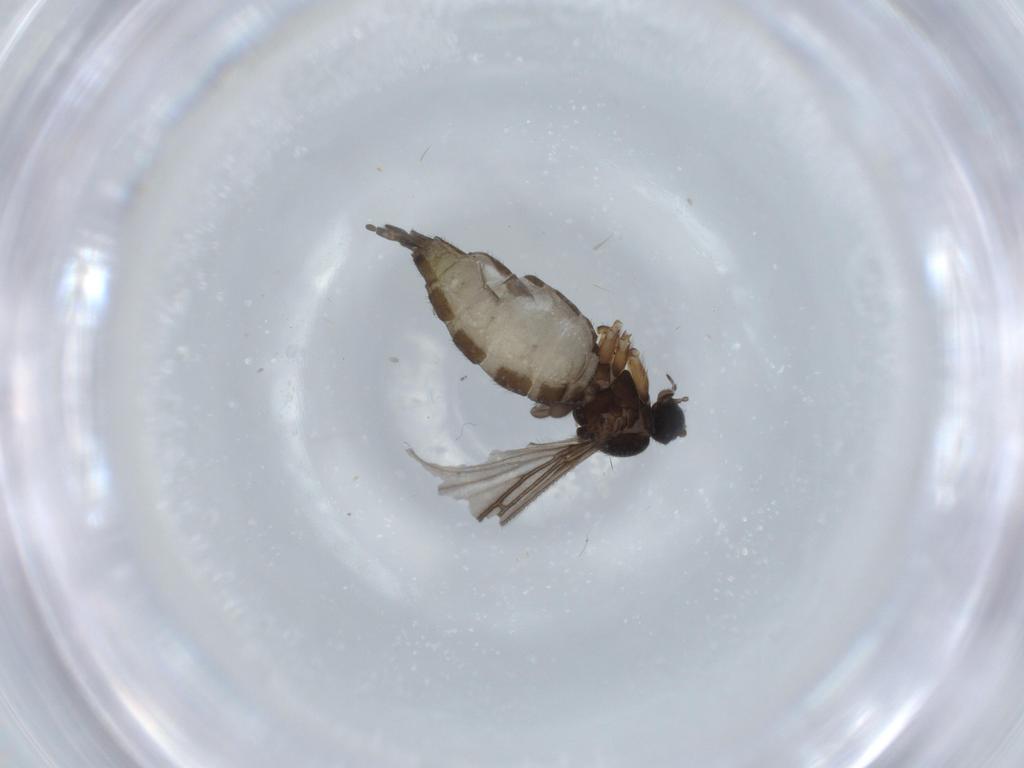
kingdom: Animalia
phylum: Arthropoda
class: Insecta
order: Diptera
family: Sciaridae
